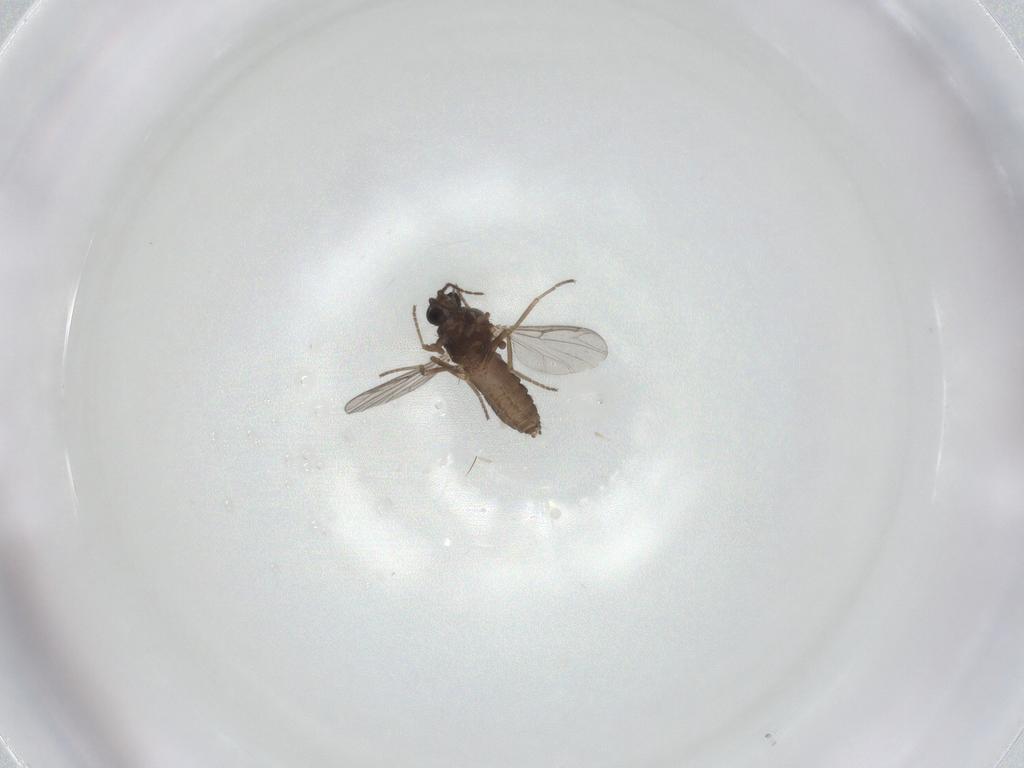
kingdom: Animalia
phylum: Arthropoda
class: Insecta
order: Diptera
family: Ceratopogonidae
